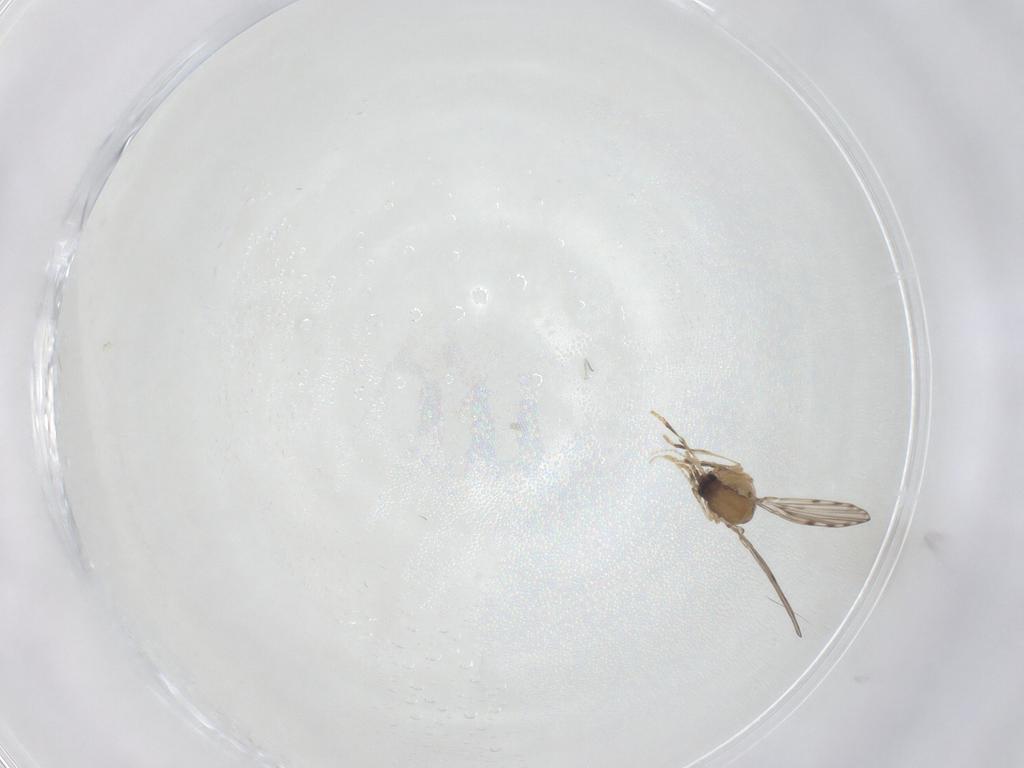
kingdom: Animalia
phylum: Arthropoda
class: Insecta
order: Diptera
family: Psychodidae
